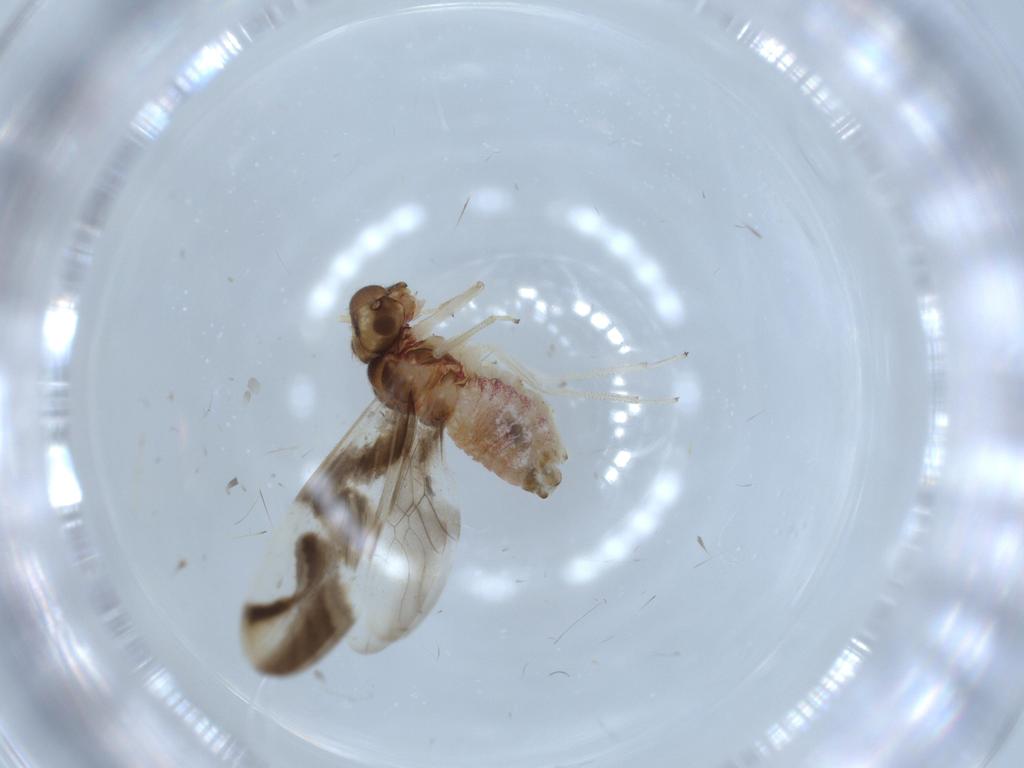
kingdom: Animalia
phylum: Arthropoda
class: Insecta
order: Psocodea
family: Caeciliusidae
